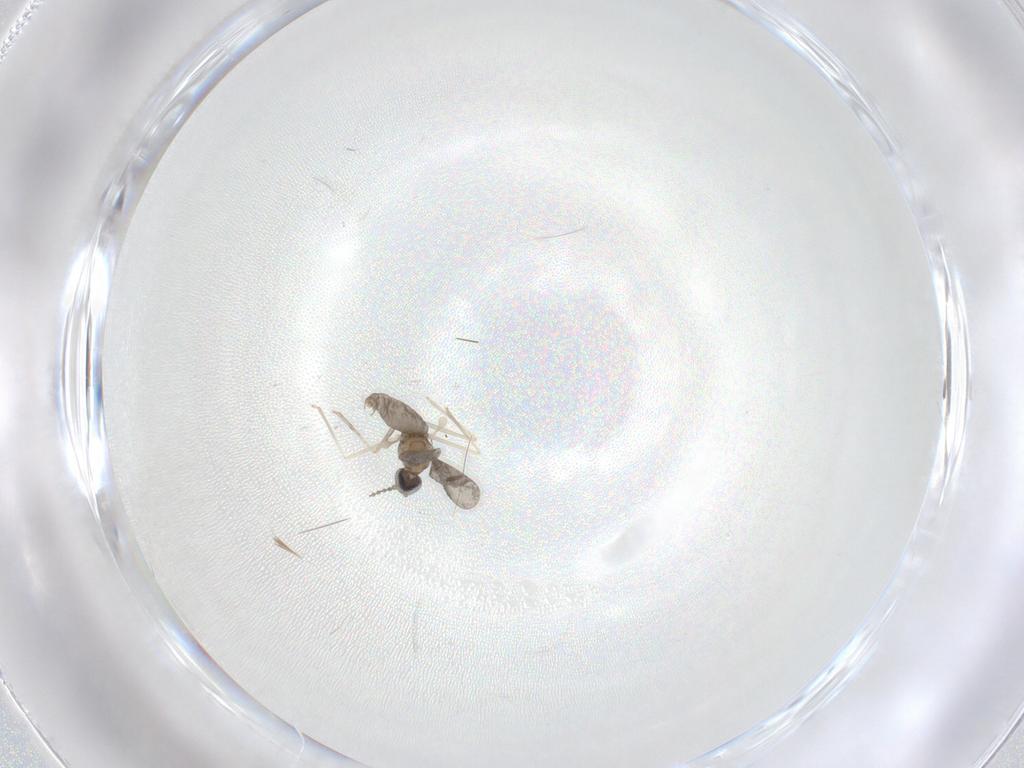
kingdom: Animalia
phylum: Arthropoda
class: Insecta
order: Diptera
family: Cecidomyiidae
